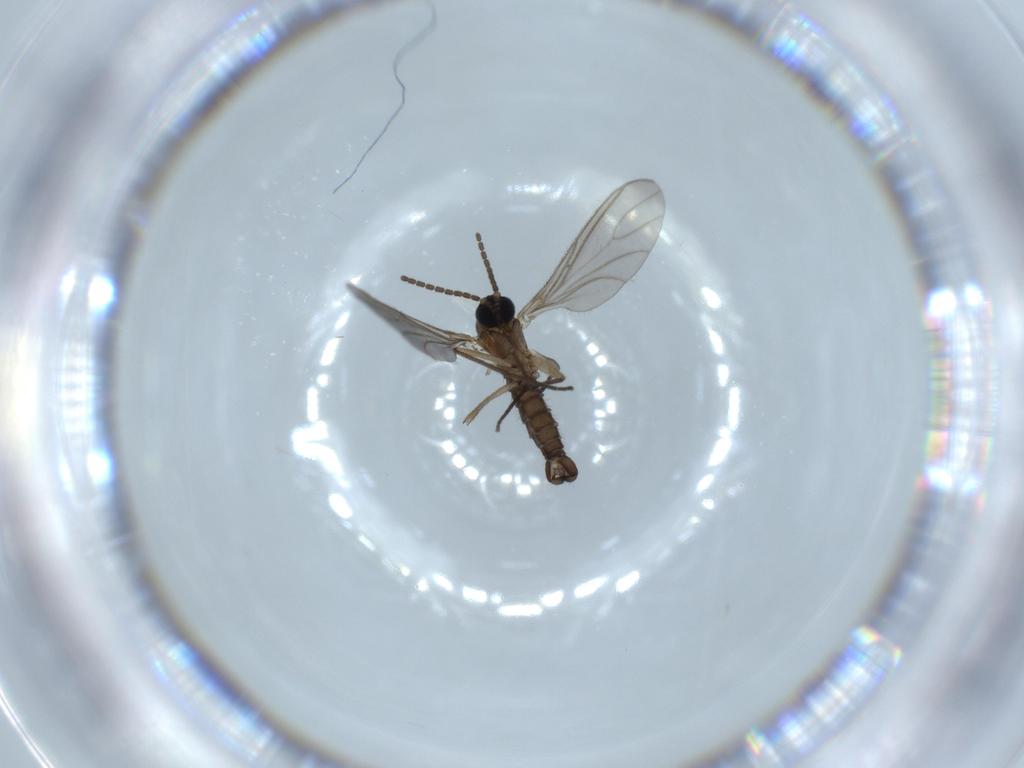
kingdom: Animalia
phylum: Arthropoda
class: Insecta
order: Diptera
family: Sciaridae
